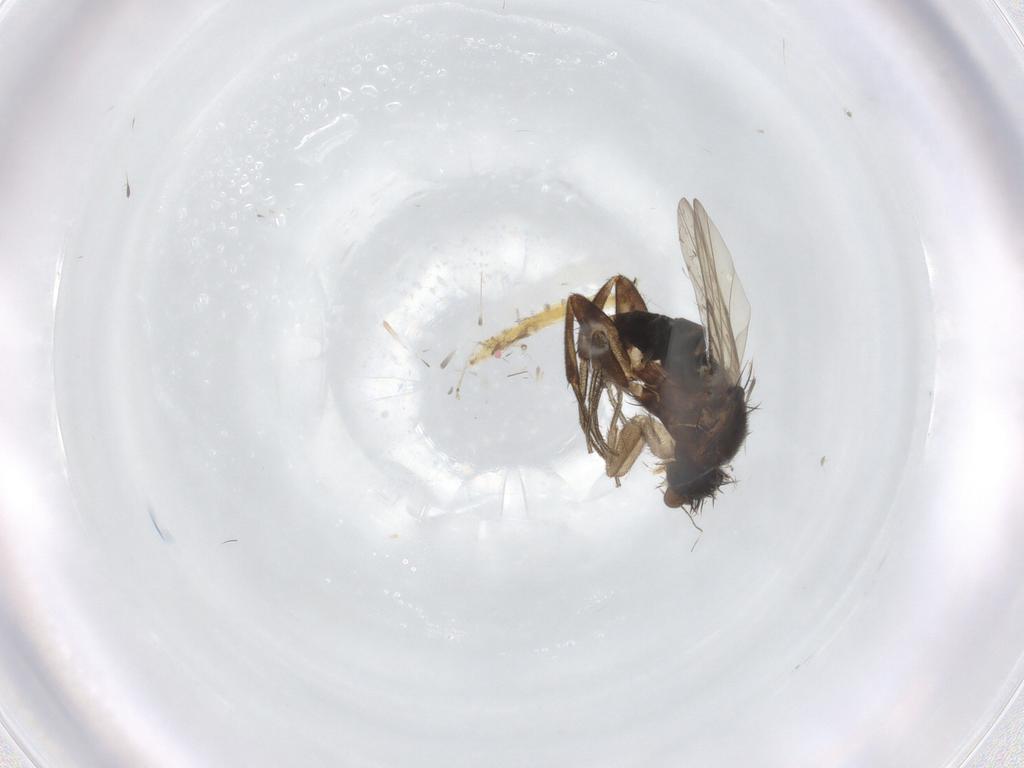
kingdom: Animalia
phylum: Arthropoda
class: Insecta
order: Diptera
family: Phoridae
